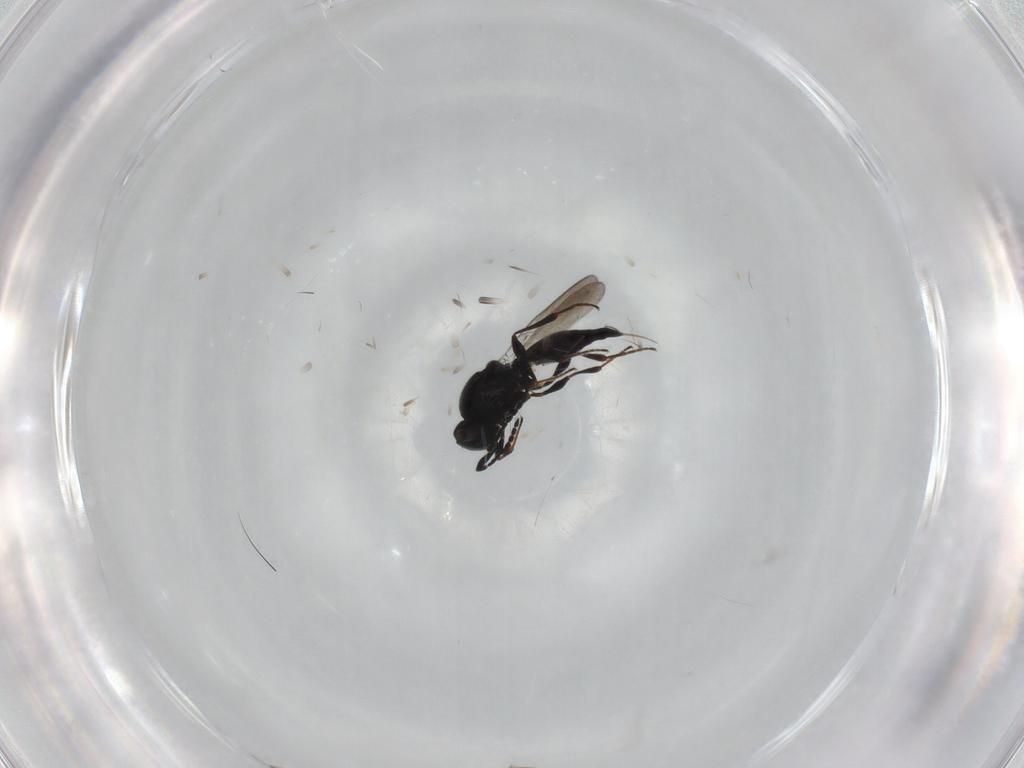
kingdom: Animalia
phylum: Arthropoda
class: Insecta
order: Hymenoptera
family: Platygastridae
